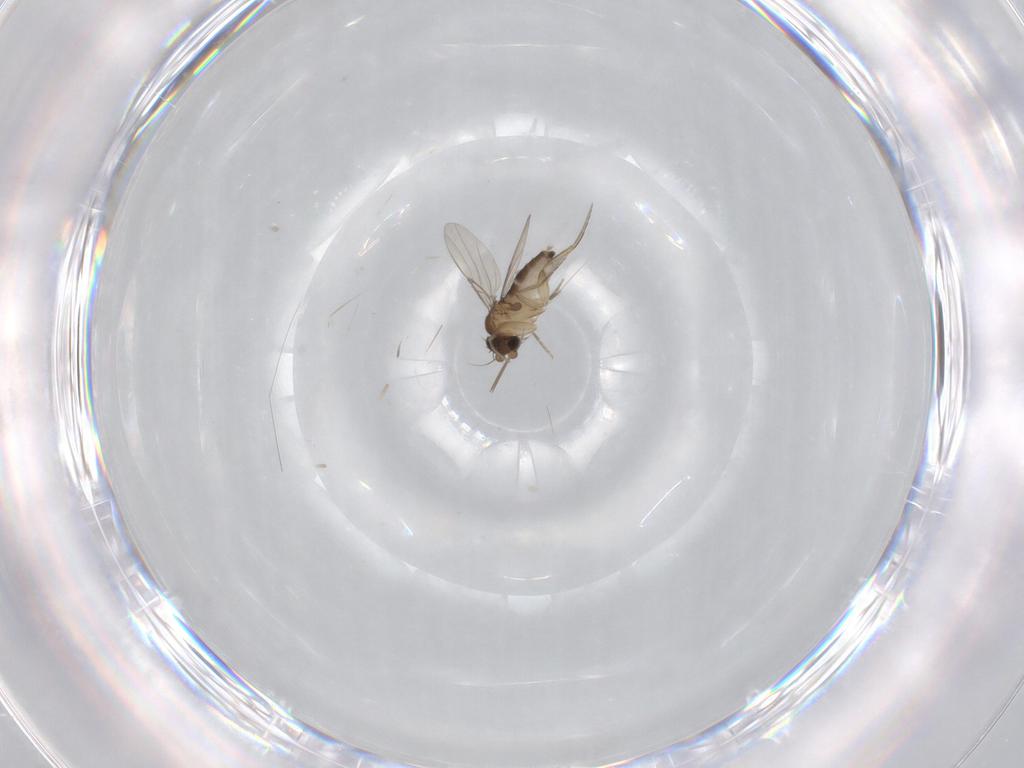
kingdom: Animalia
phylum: Arthropoda
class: Insecta
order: Diptera
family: Phoridae
